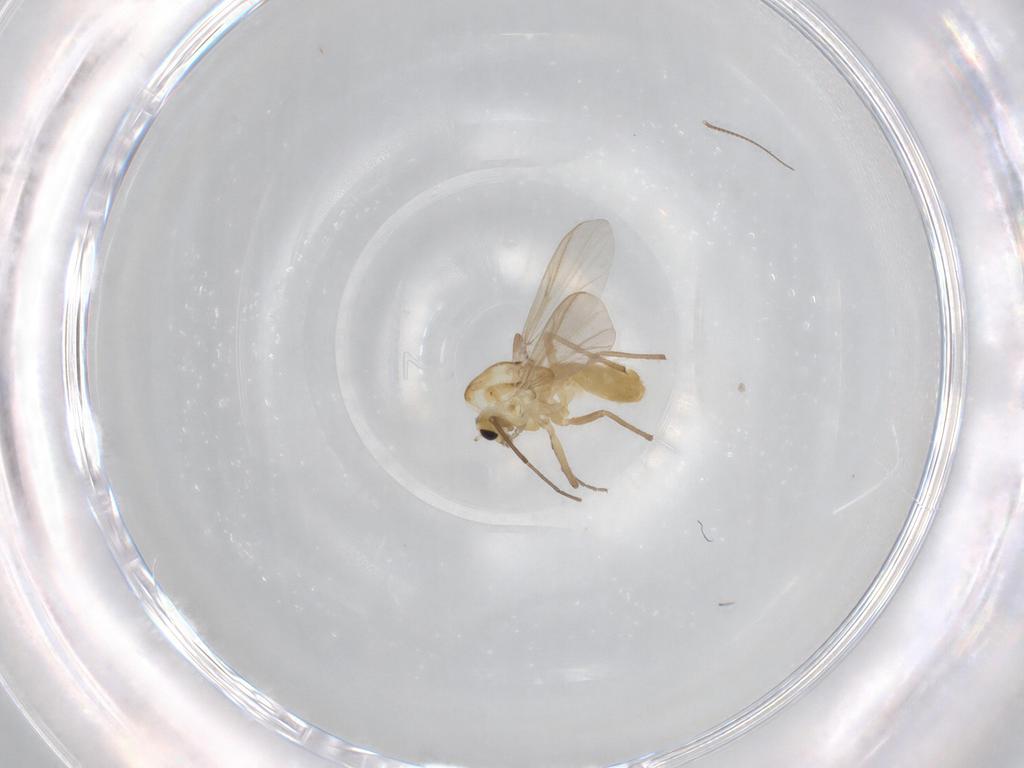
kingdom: Animalia
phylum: Arthropoda
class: Insecta
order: Diptera
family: Chironomidae
